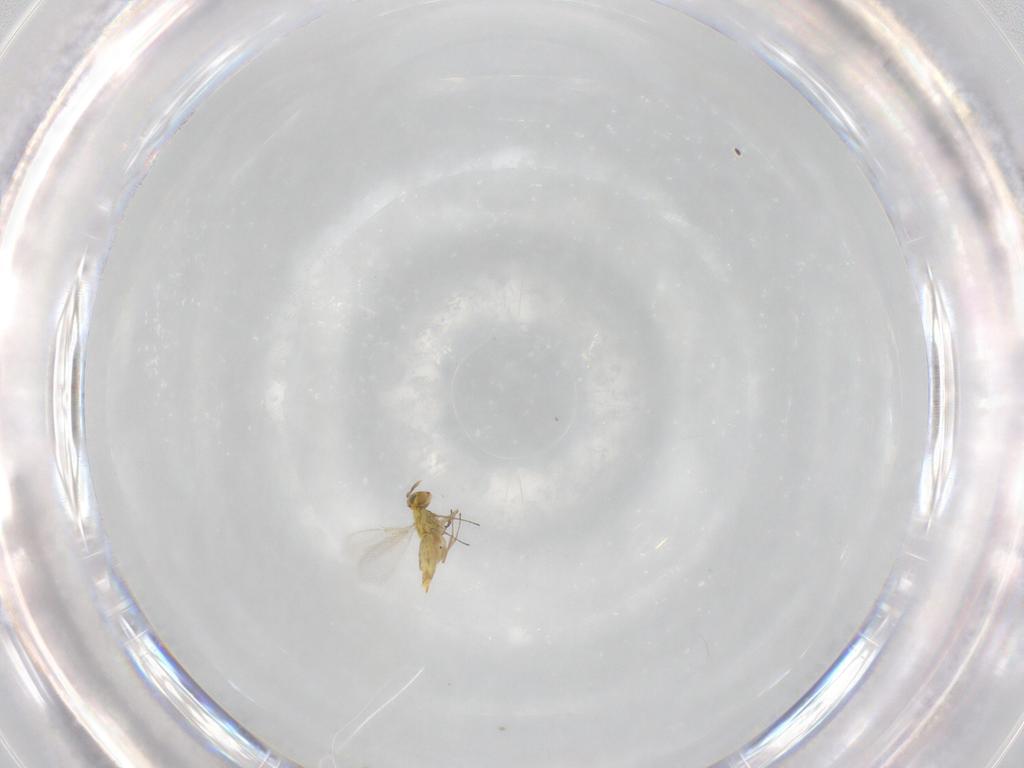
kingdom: Animalia
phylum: Arthropoda
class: Insecta
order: Hymenoptera
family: Aphelinidae
